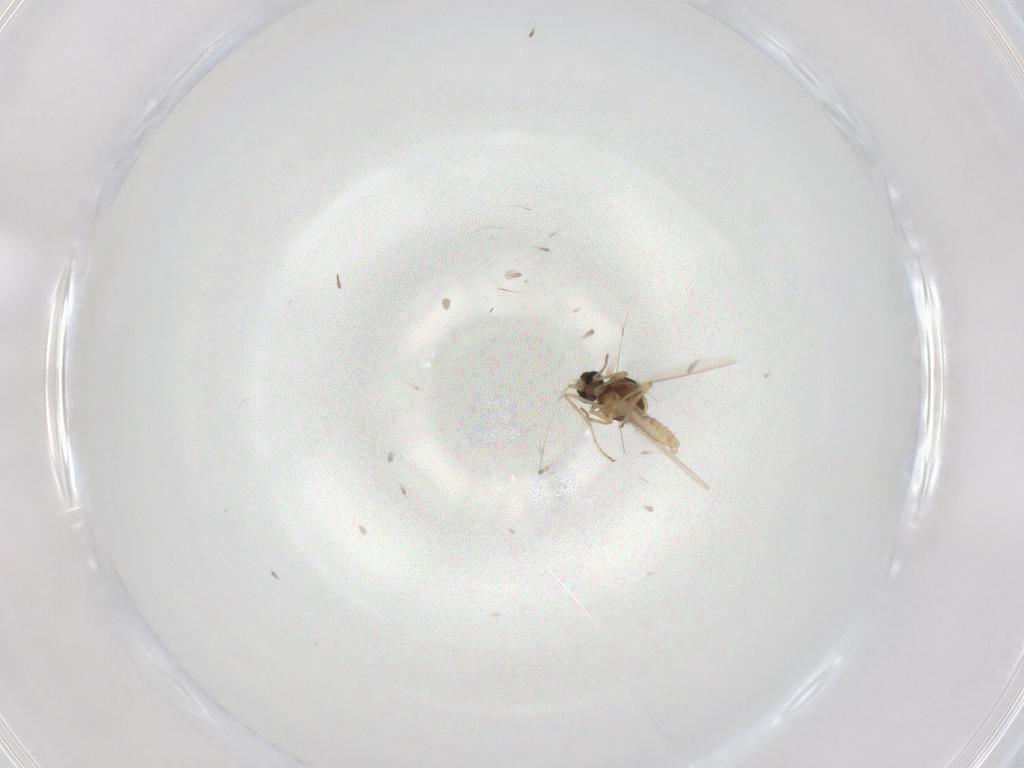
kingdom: Animalia
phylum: Arthropoda
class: Insecta
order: Diptera
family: Ceratopogonidae
